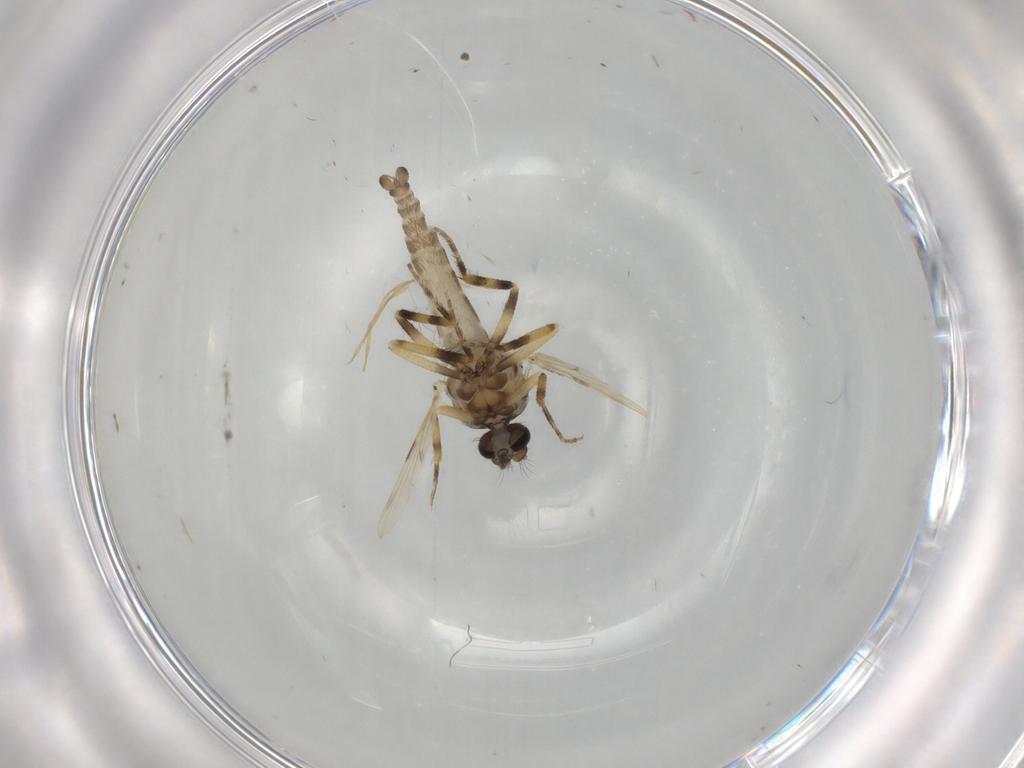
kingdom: Animalia
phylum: Arthropoda
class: Insecta
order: Diptera
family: Ceratopogonidae
